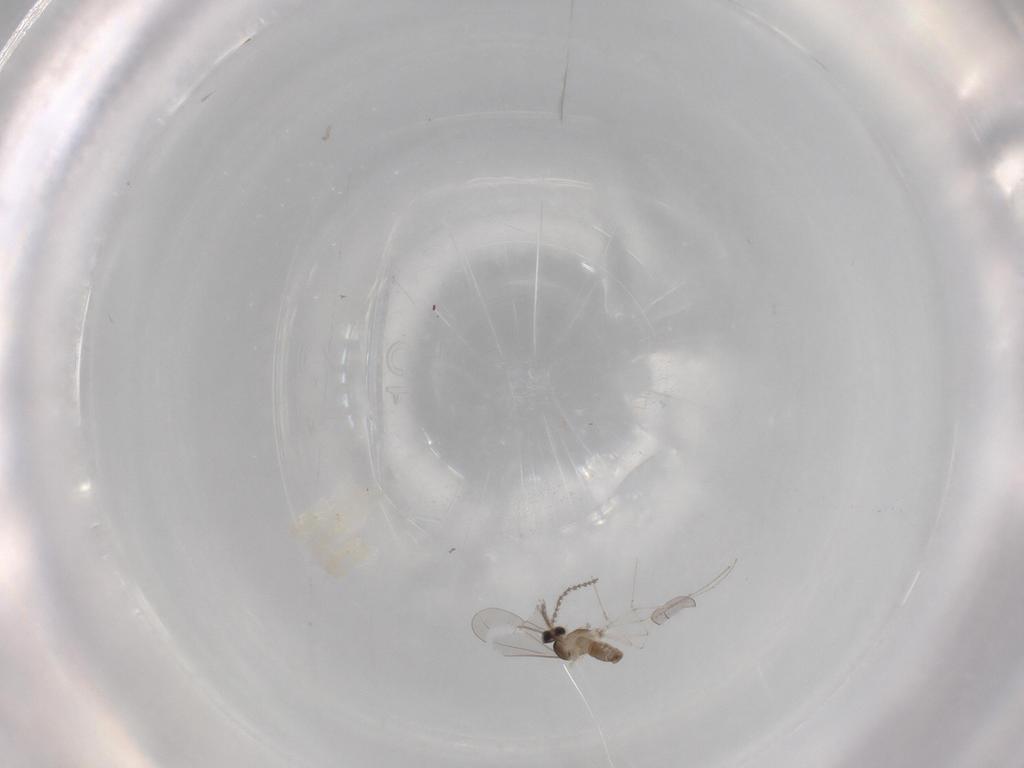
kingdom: Animalia
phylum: Arthropoda
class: Insecta
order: Diptera
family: Cecidomyiidae
